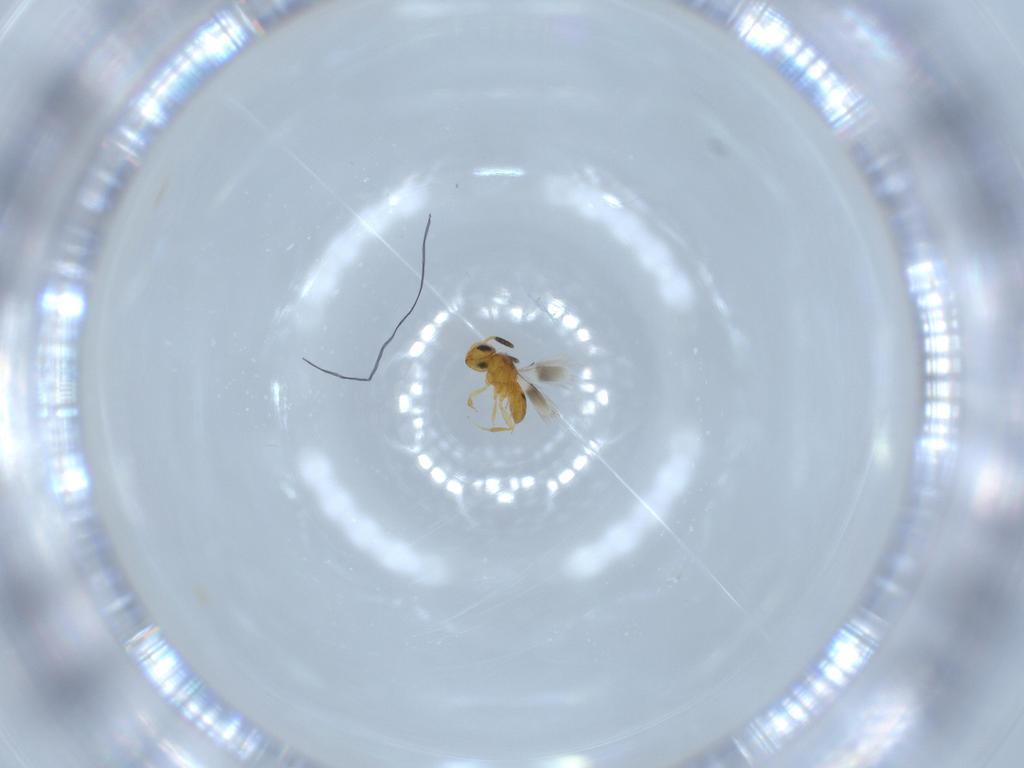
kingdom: Animalia
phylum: Arthropoda
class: Insecta
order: Hymenoptera
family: Scelionidae
